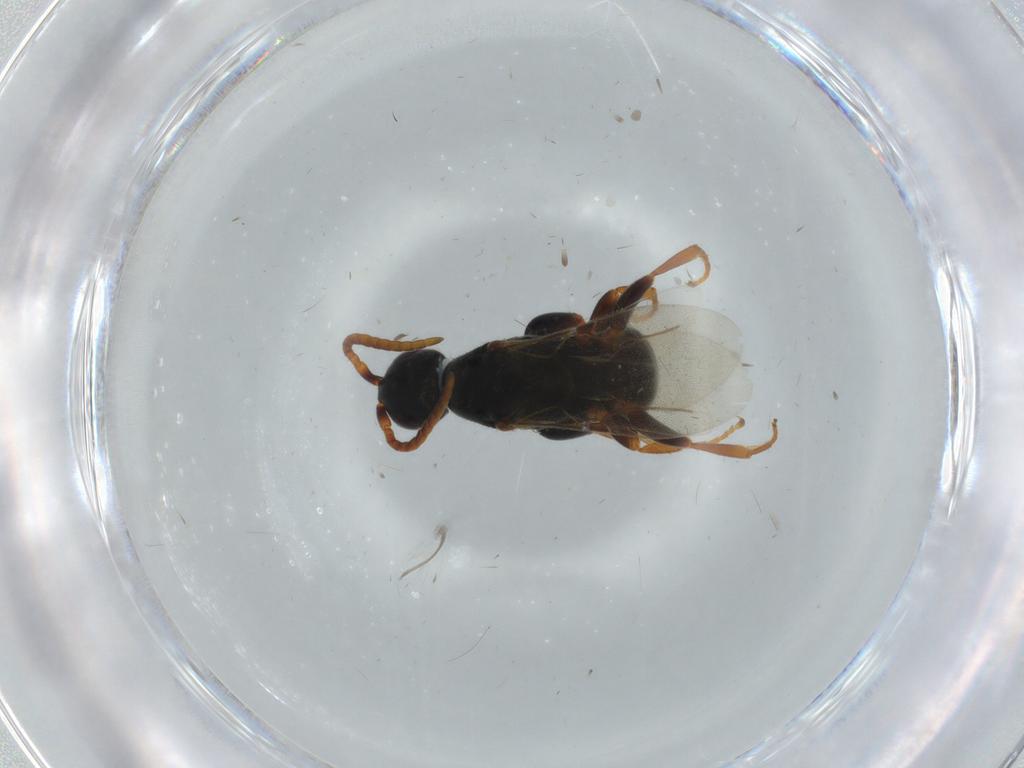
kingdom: Animalia
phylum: Arthropoda
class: Insecta
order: Hymenoptera
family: Bethylidae
